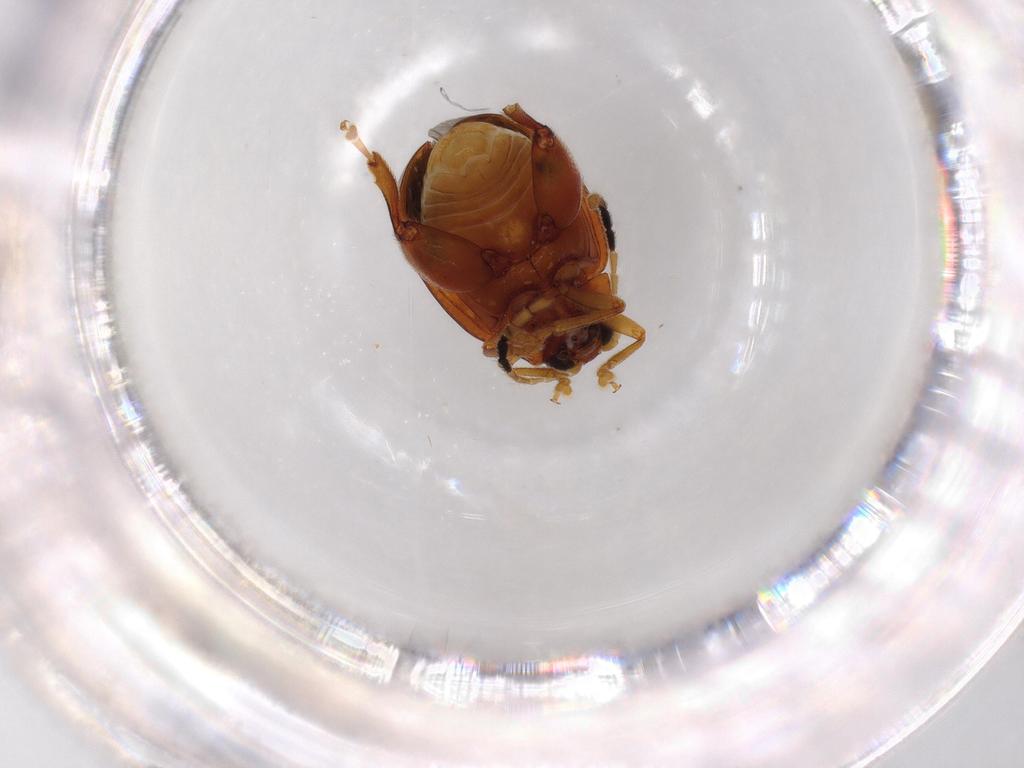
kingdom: Animalia
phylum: Arthropoda
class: Insecta
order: Coleoptera
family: Chrysomelidae
